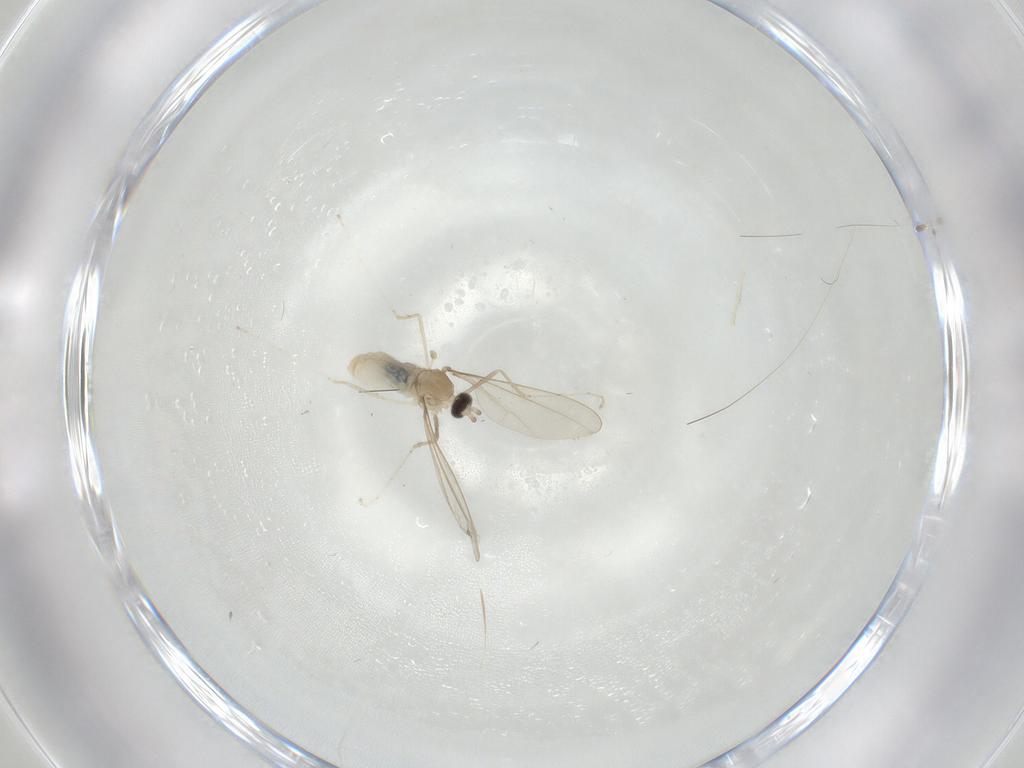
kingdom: Animalia
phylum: Arthropoda
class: Insecta
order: Diptera
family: Cecidomyiidae
